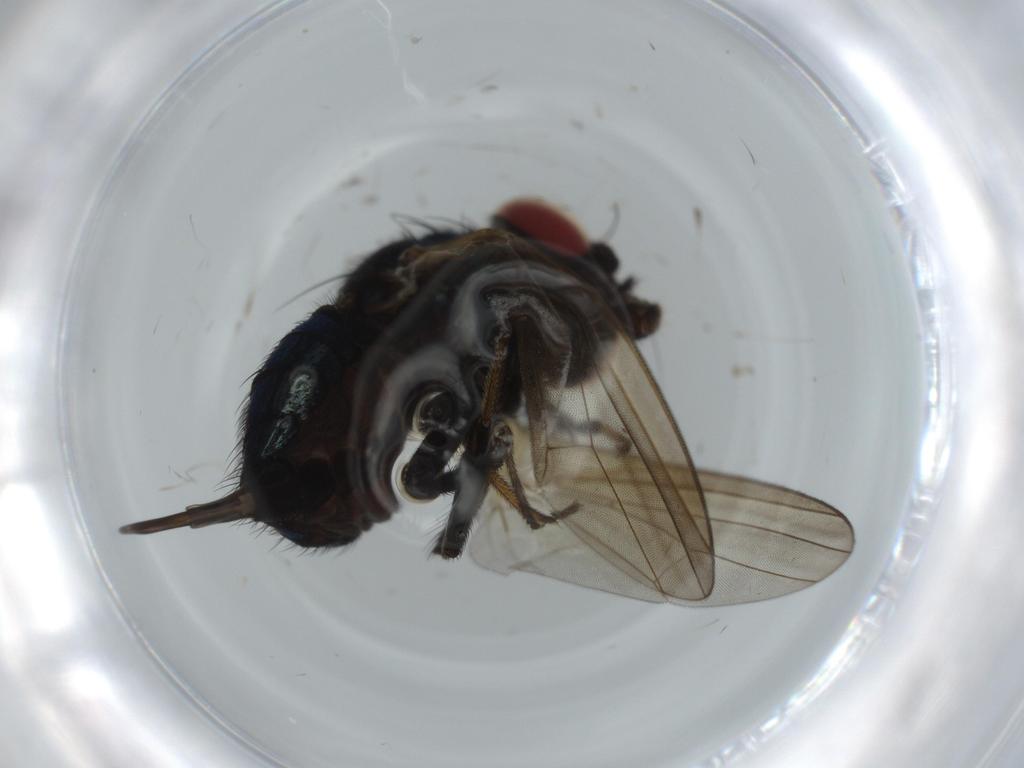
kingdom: Animalia
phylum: Arthropoda
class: Insecta
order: Diptera
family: Lonchaeidae
